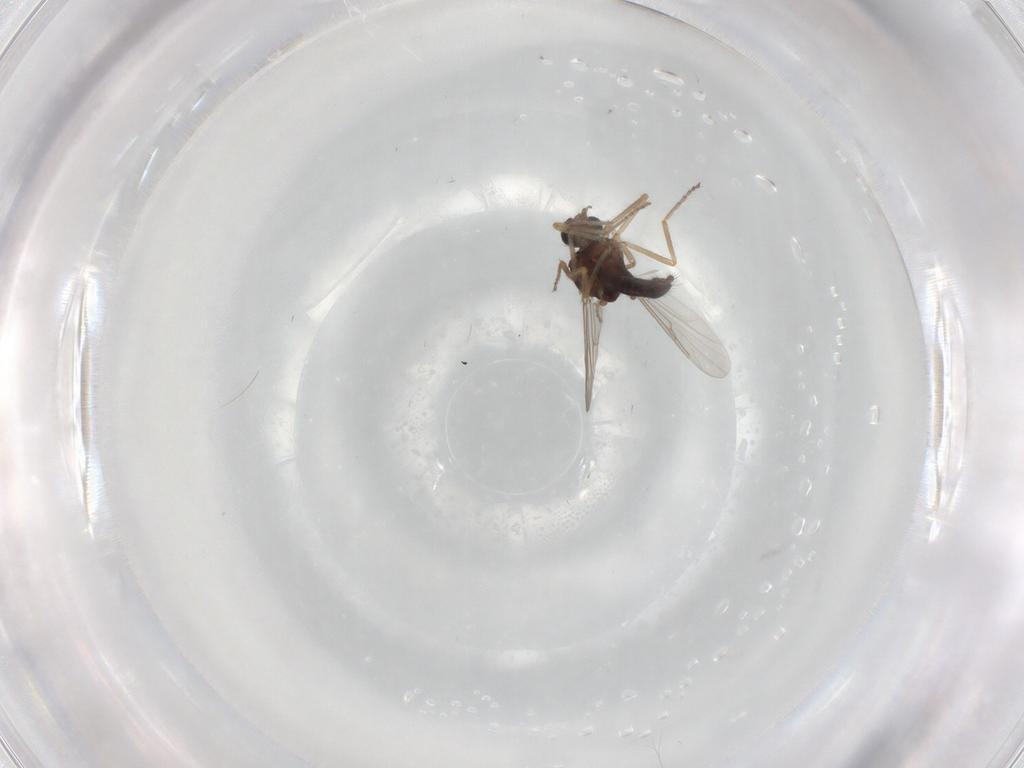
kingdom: Animalia
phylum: Arthropoda
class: Insecta
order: Diptera
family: Ceratopogonidae
